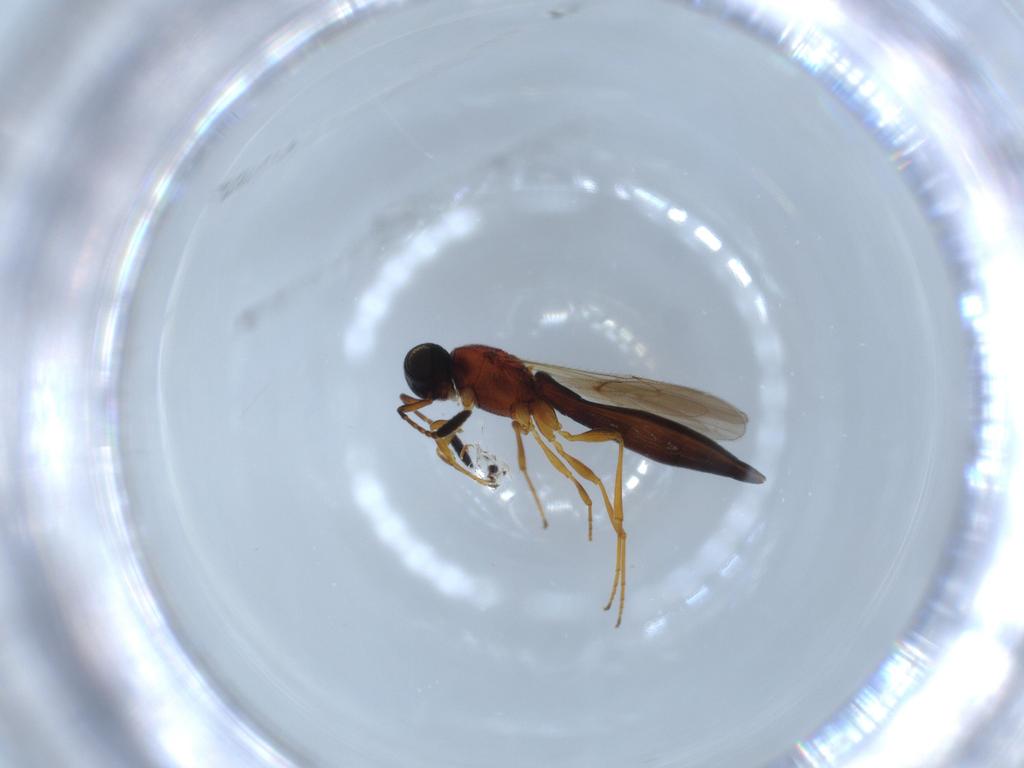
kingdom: Animalia
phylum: Arthropoda
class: Insecta
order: Hymenoptera
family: Scelionidae
